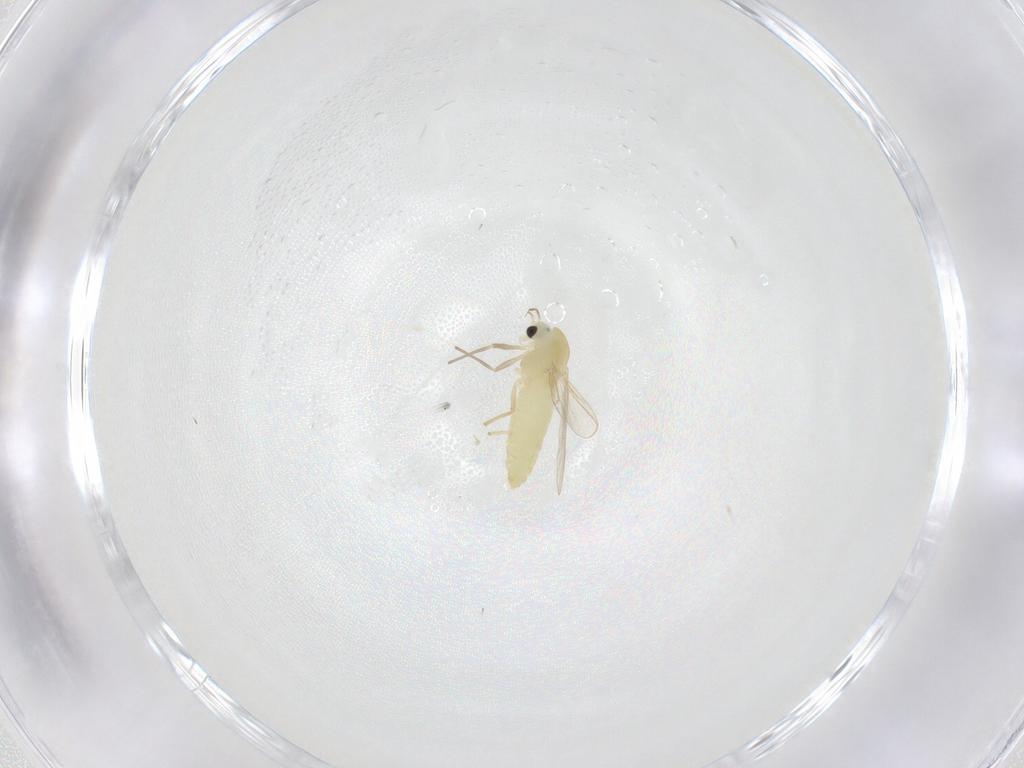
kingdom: Animalia
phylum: Arthropoda
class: Insecta
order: Diptera
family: Chironomidae
